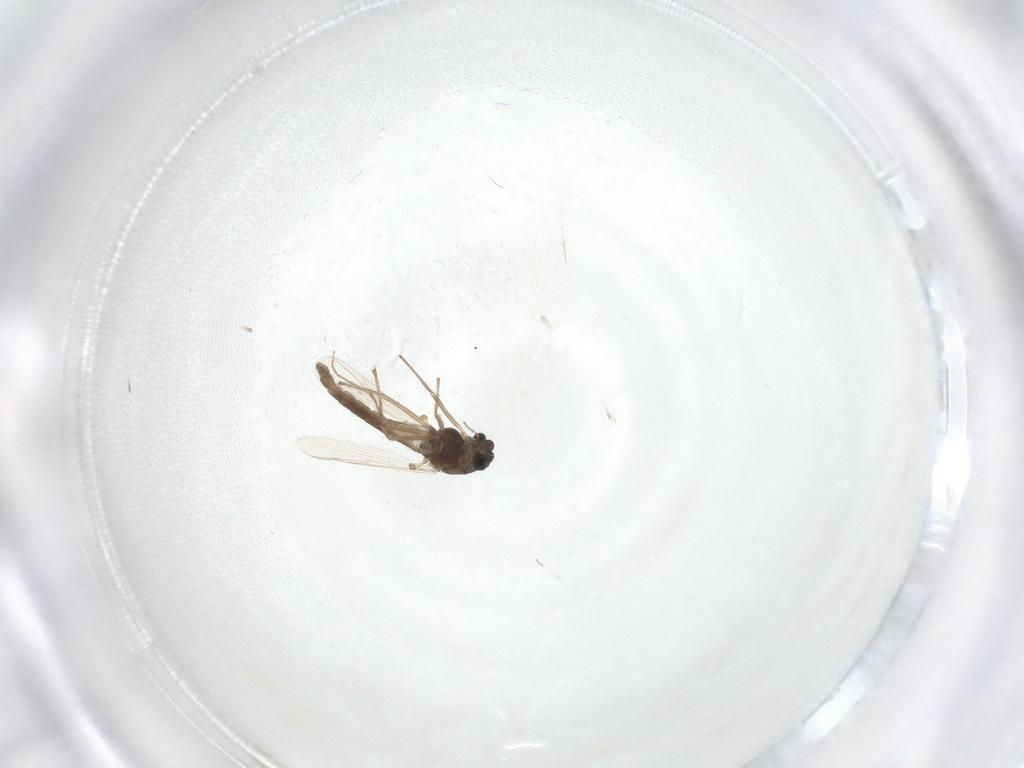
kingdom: Animalia
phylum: Arthropoda
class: Insecta
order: Diptera
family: Chironomidae
